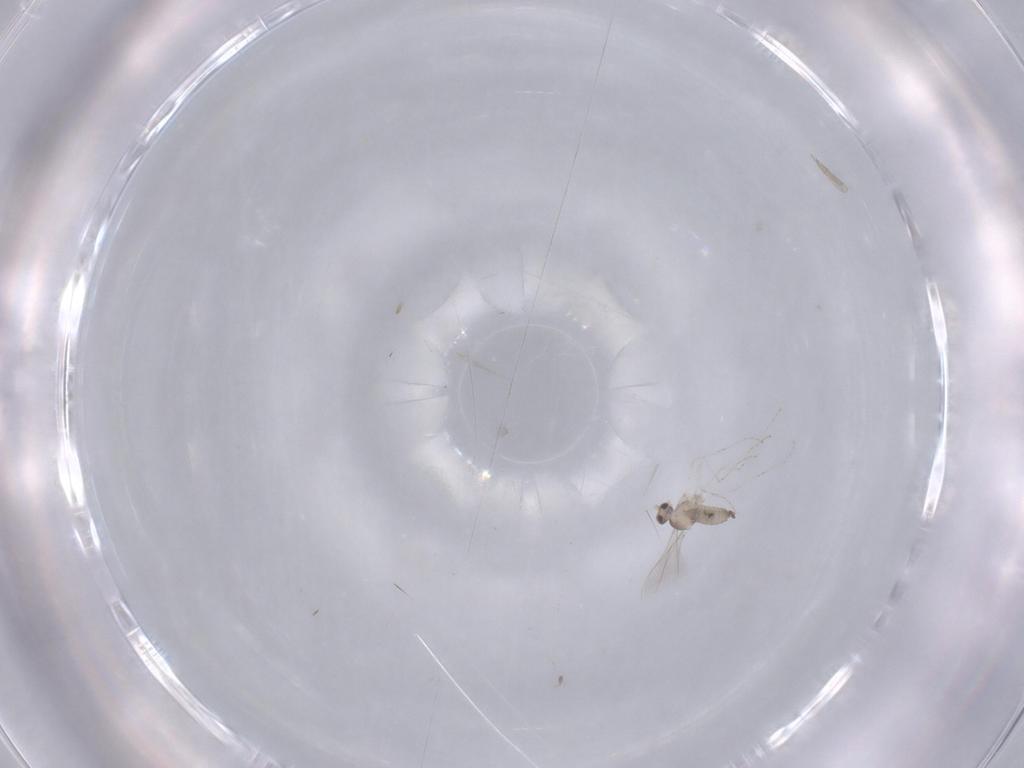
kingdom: Animalia
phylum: Arthropoda
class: Insecta
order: Diptera
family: Cecidomyiidae
